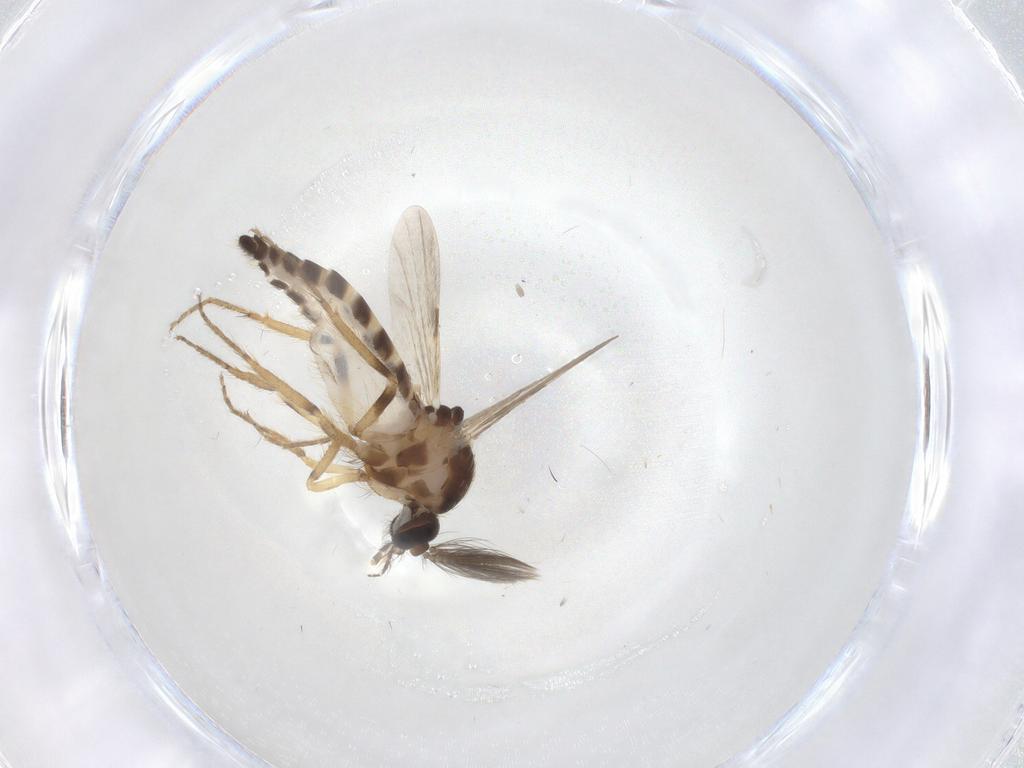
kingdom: Animalia
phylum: Arthropoda
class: Insecta
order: Diptera
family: Ceratopogonidae
